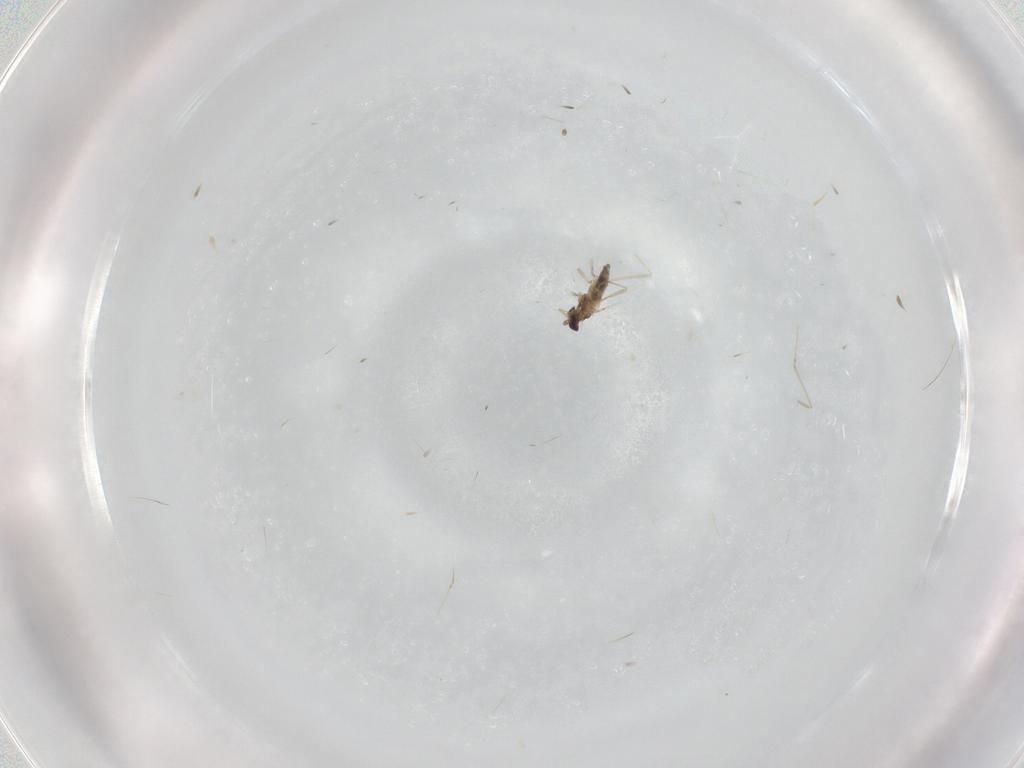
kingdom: Animalia
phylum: Arthropoda
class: Insecta
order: Diptera
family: Cecidomyiidae
